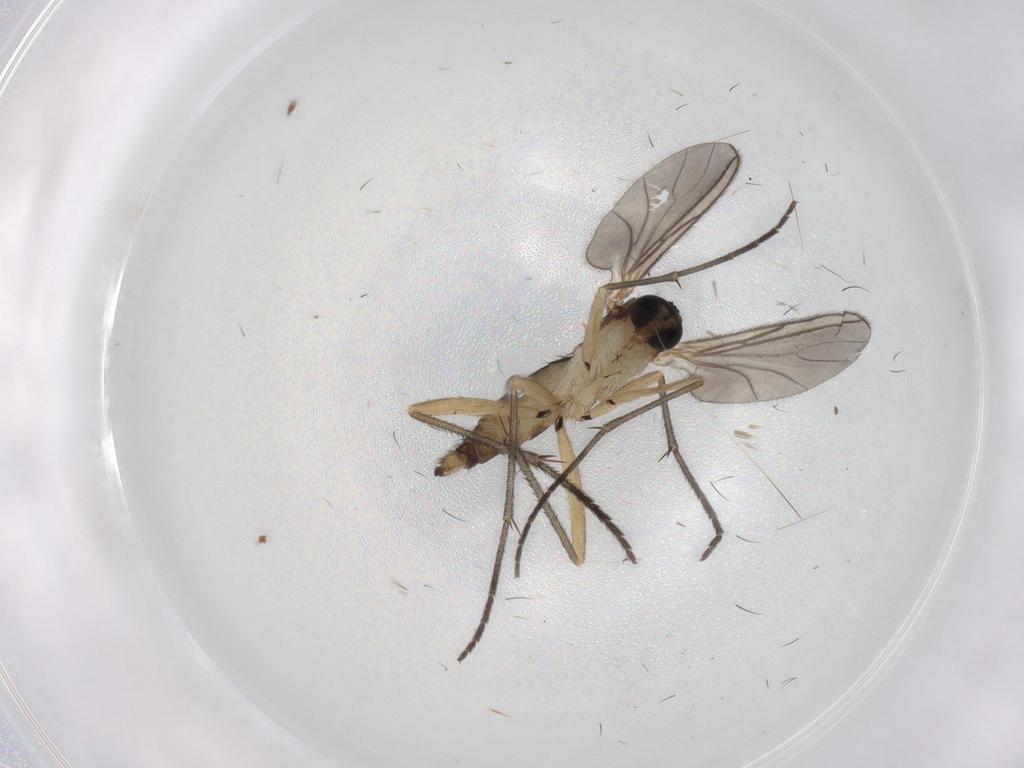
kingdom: Animalia
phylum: Arthropoda
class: Insecta
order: Diptera
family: Sciaridae
